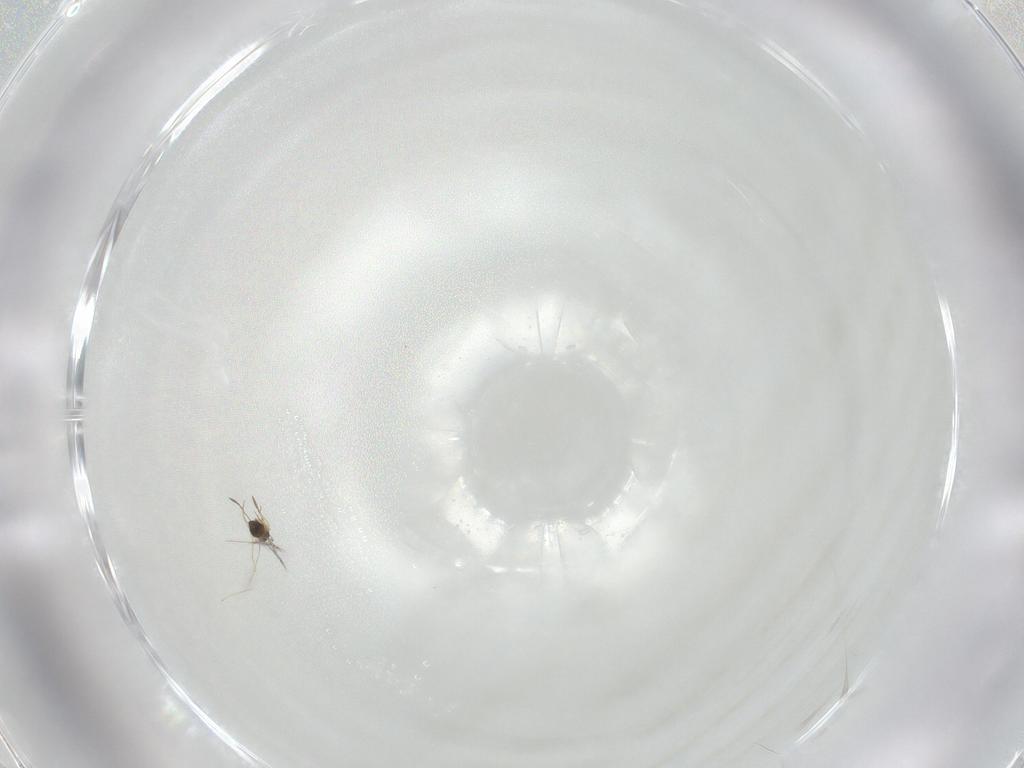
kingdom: Animalia
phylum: Arthropoda
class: Insecta
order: Hymenoptera
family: Mymaridae
